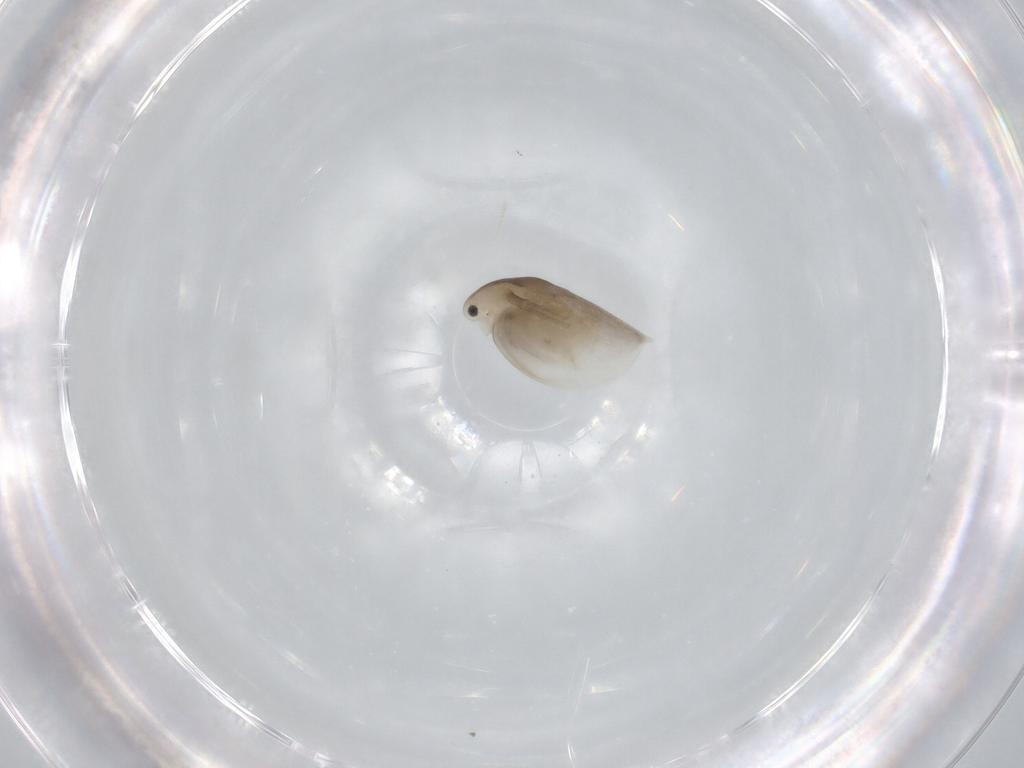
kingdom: Animalia
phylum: Arthropoda
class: Branchiopoda
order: Diplostraca
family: Daphniidae
